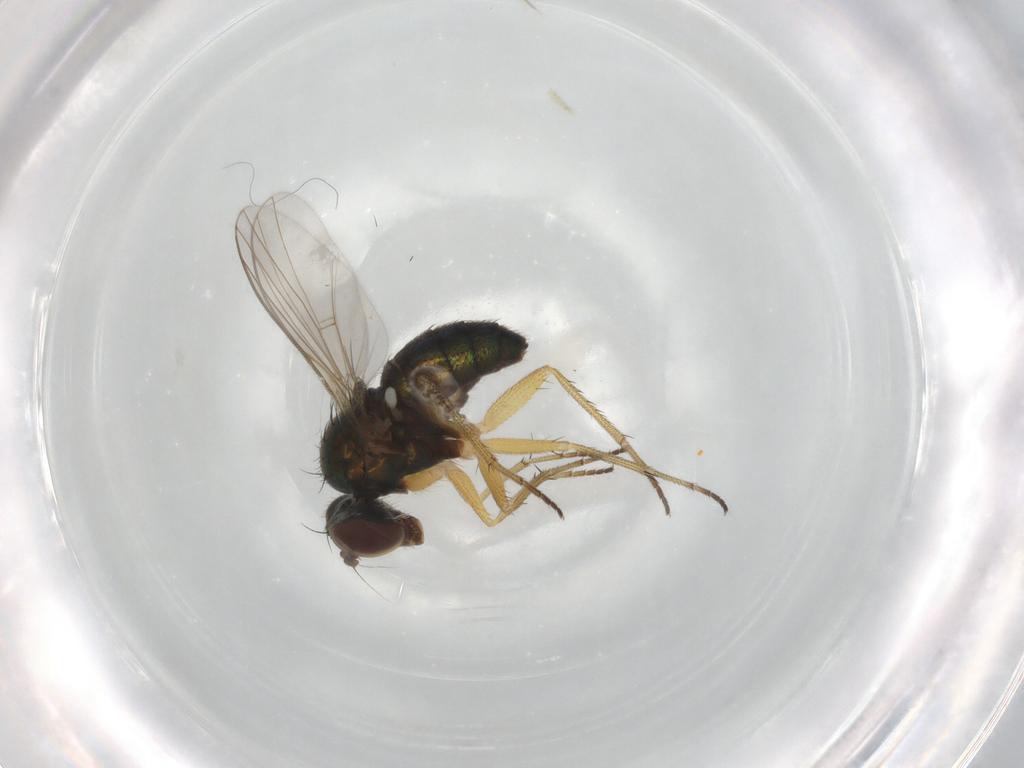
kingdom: Animalia
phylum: Arthropoda
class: Insecta
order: Diptera
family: Dolichopodidae
